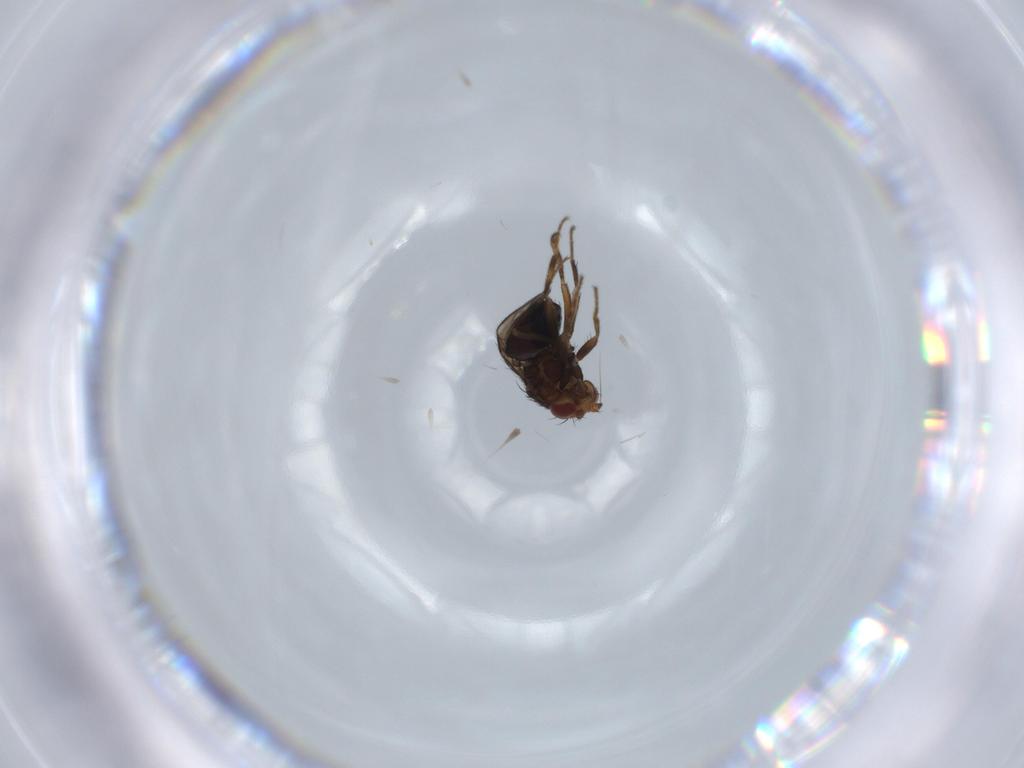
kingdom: Animalia
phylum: Arthropoda
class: Insecta
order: Diptera
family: Sphaeroceridae
